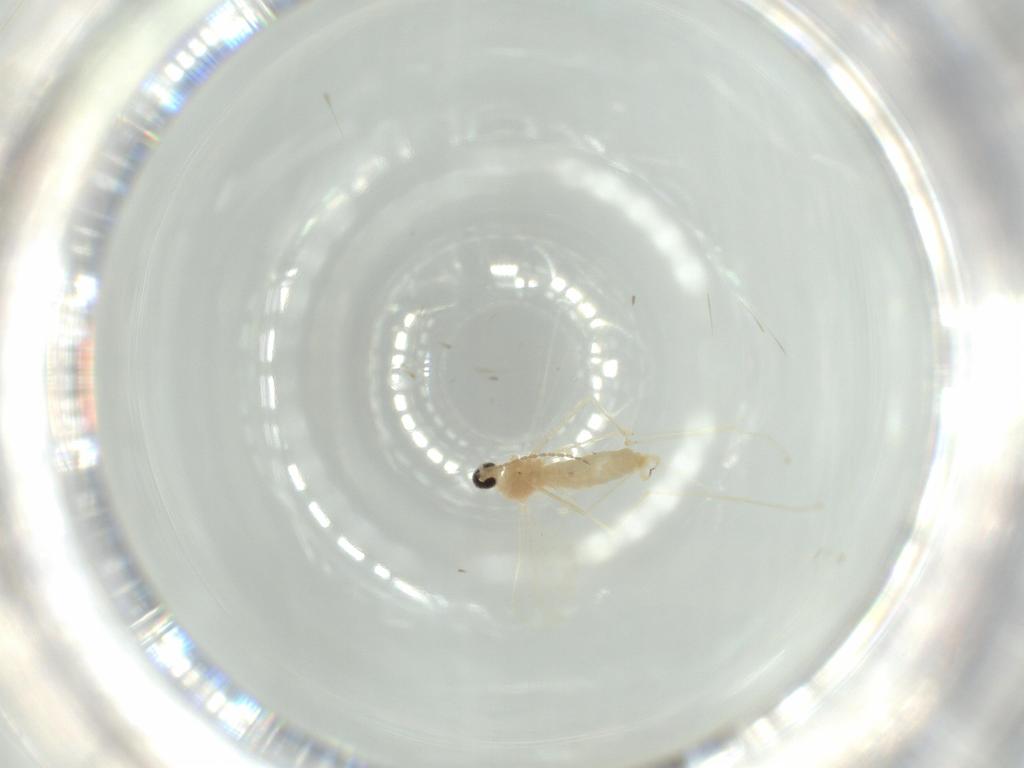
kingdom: Animalia
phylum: Arthropoda
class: Insecta
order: Diptera
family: Cecidomyiidae
